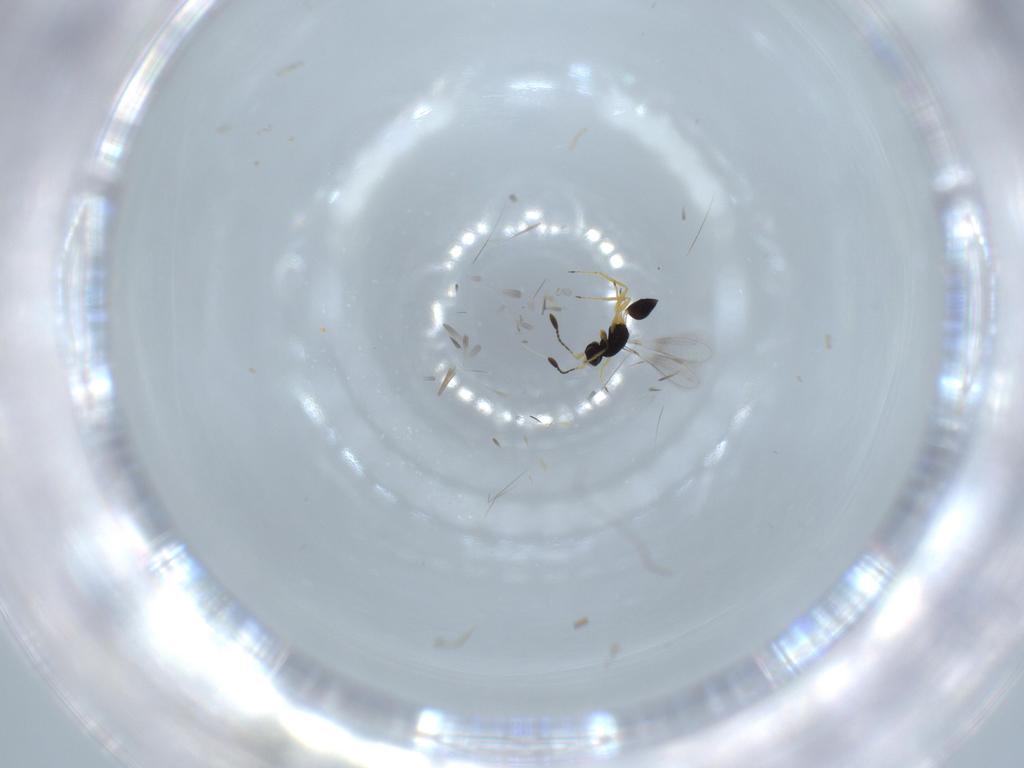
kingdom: Animalia
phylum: Arthropoda
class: Insecta
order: Hymenoptera
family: Mymaridae
